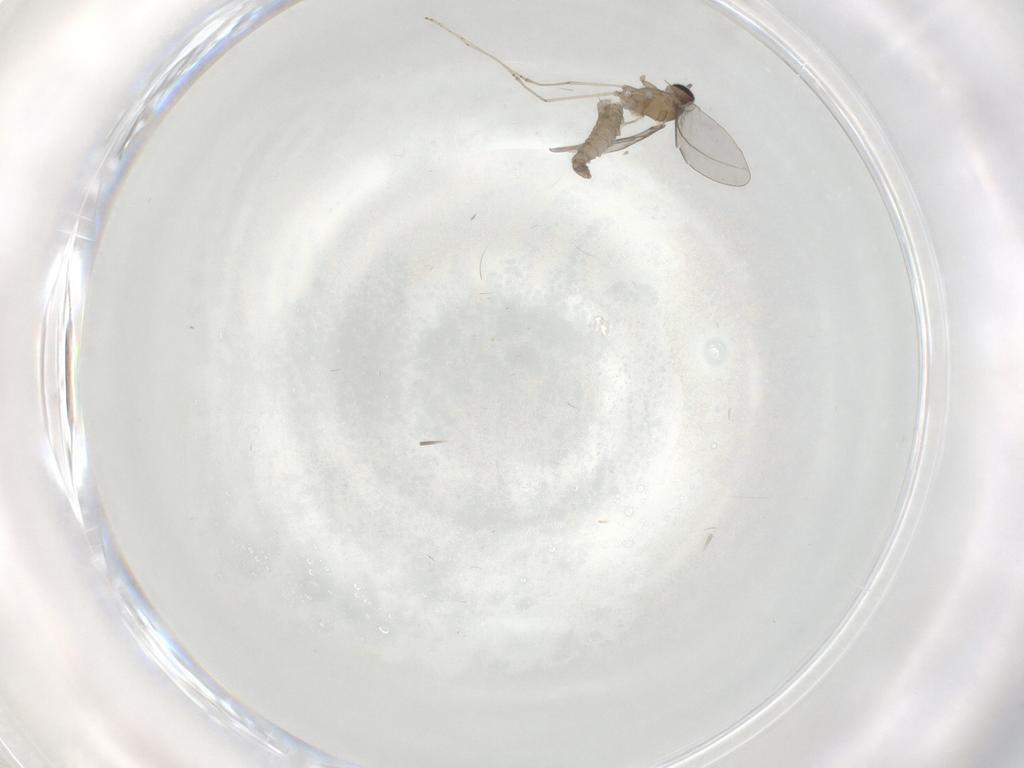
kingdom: Animalia
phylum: Arthropoda
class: Insecta
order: Diptera
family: Cecidomyiidae
